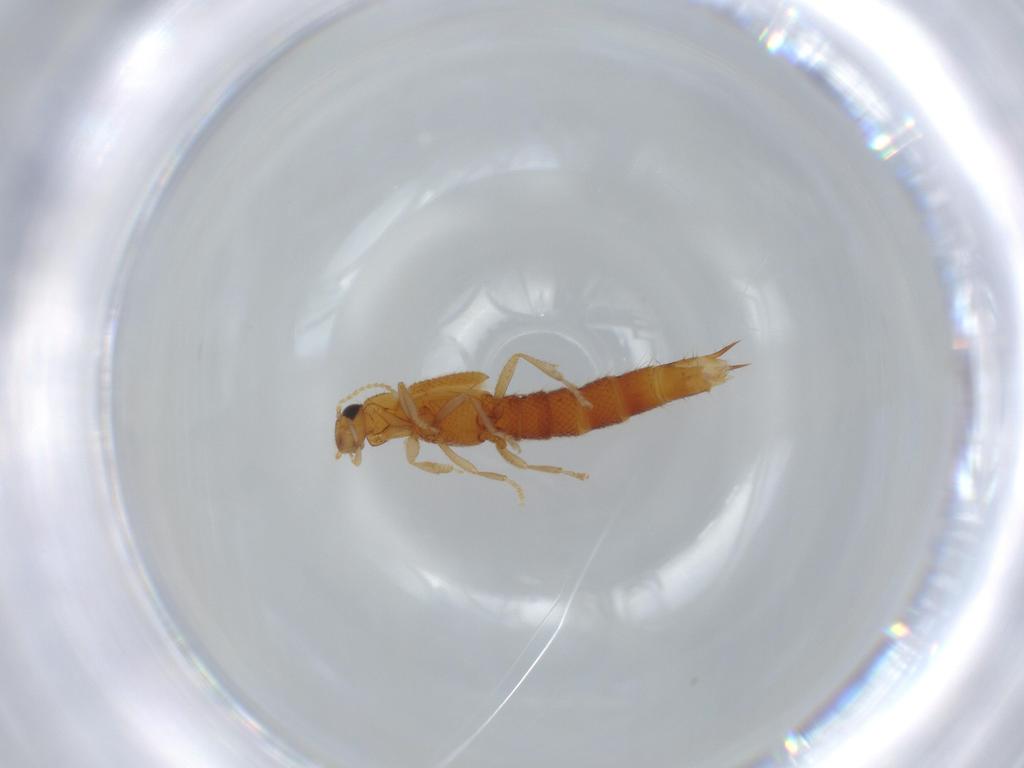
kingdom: Animalia
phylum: Arthropoda
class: Insecta
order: Coleoptera
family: Staphylinidae
